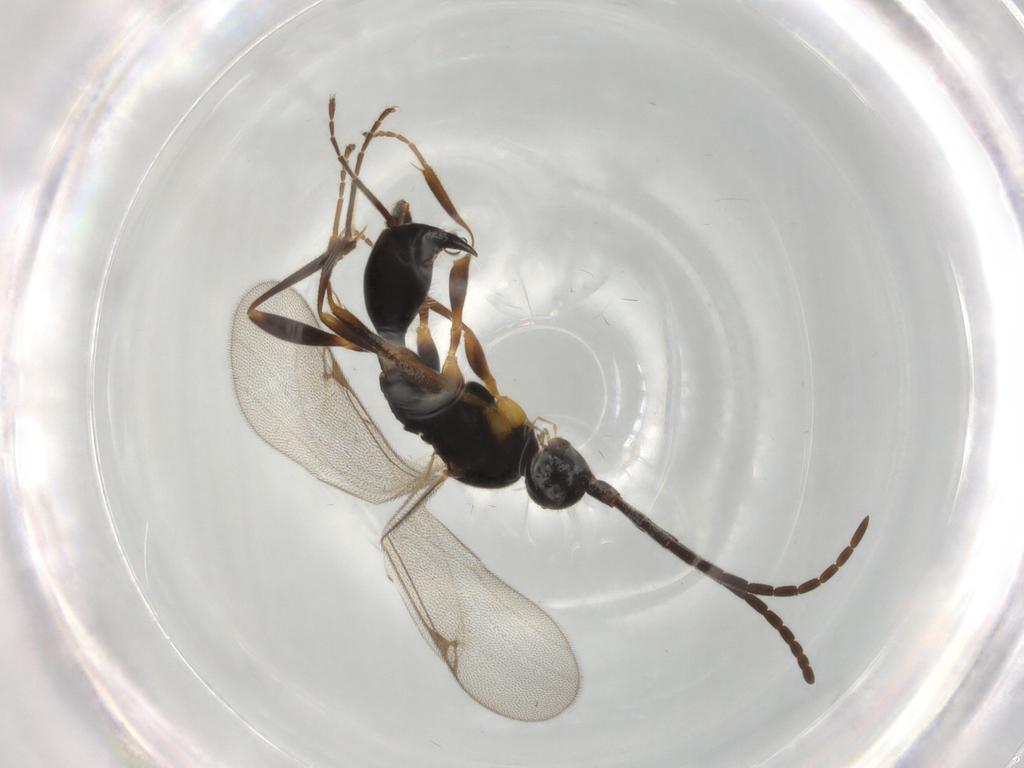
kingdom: Animalia
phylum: Arthropoda
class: Insecta
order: Hymenoptera
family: Proctotrupidae
